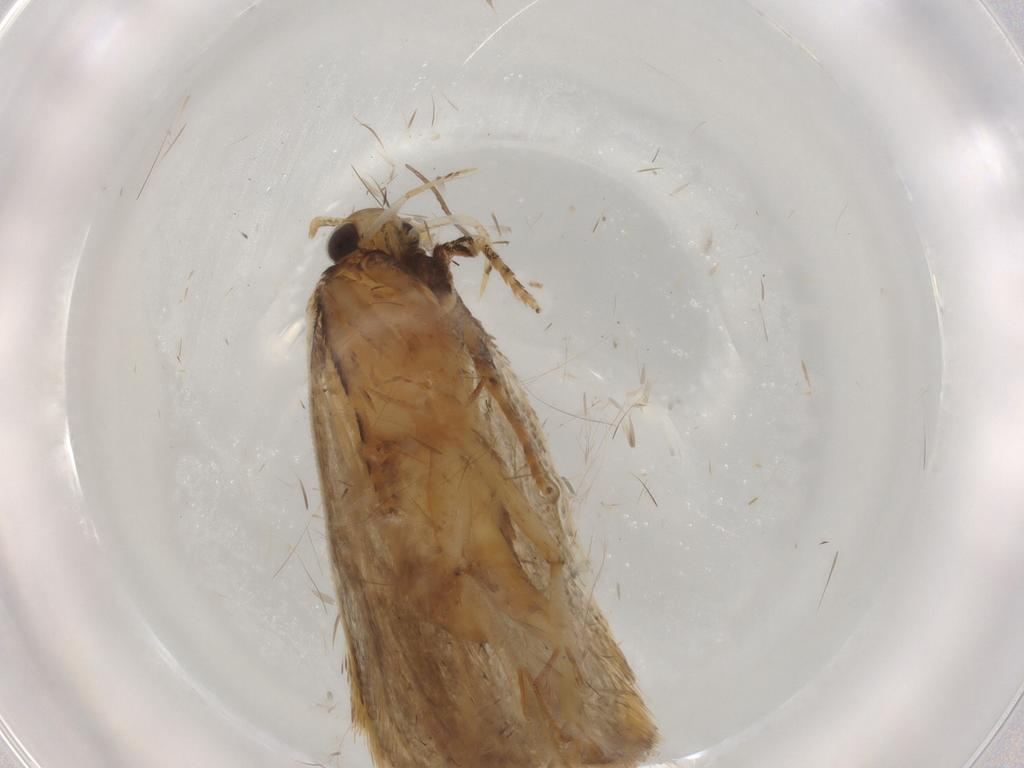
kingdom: Animalia
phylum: Arthropoda
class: Insecta
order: Lepidoptera
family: Gelechiidae
